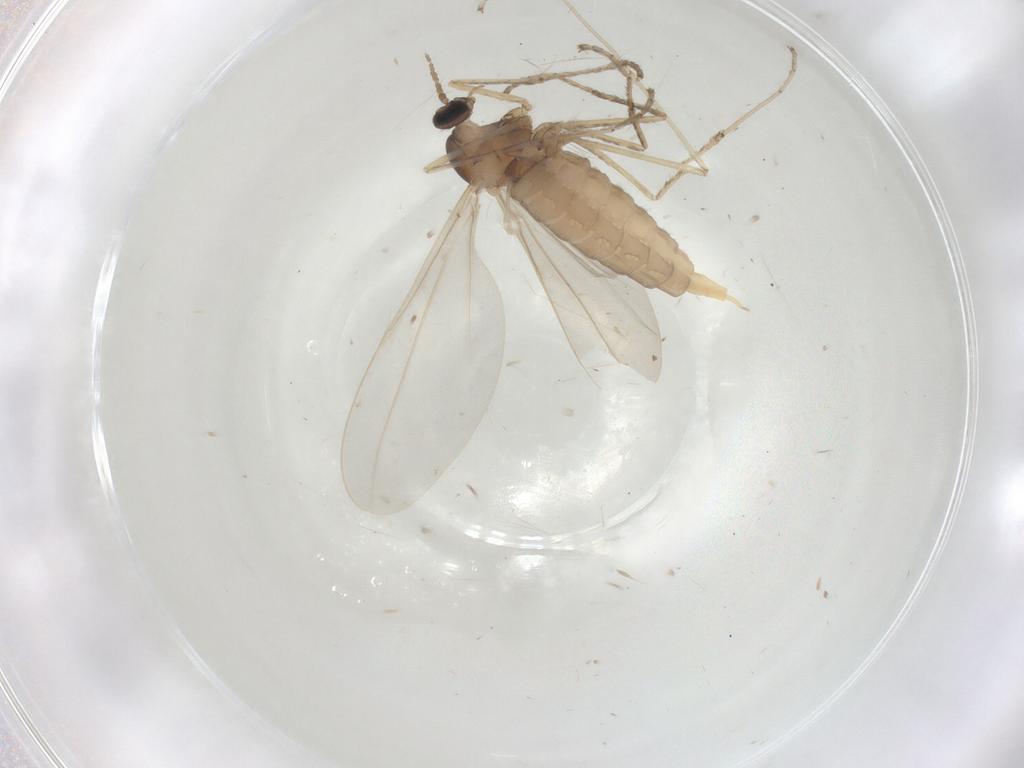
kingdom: Animalia
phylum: Arthropoda
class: Insecta
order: Diptera
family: Cecidomyiidae
